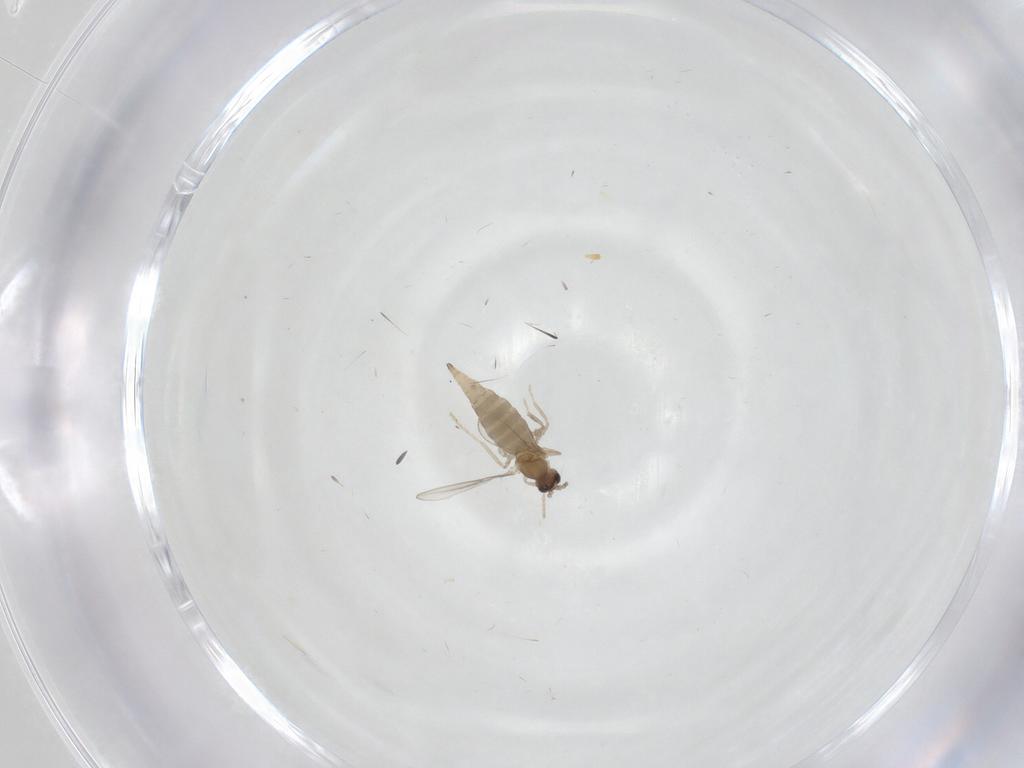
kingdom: Animalia
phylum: Arthropoda
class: Insecta
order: Diptera
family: Cecidomyiidae
